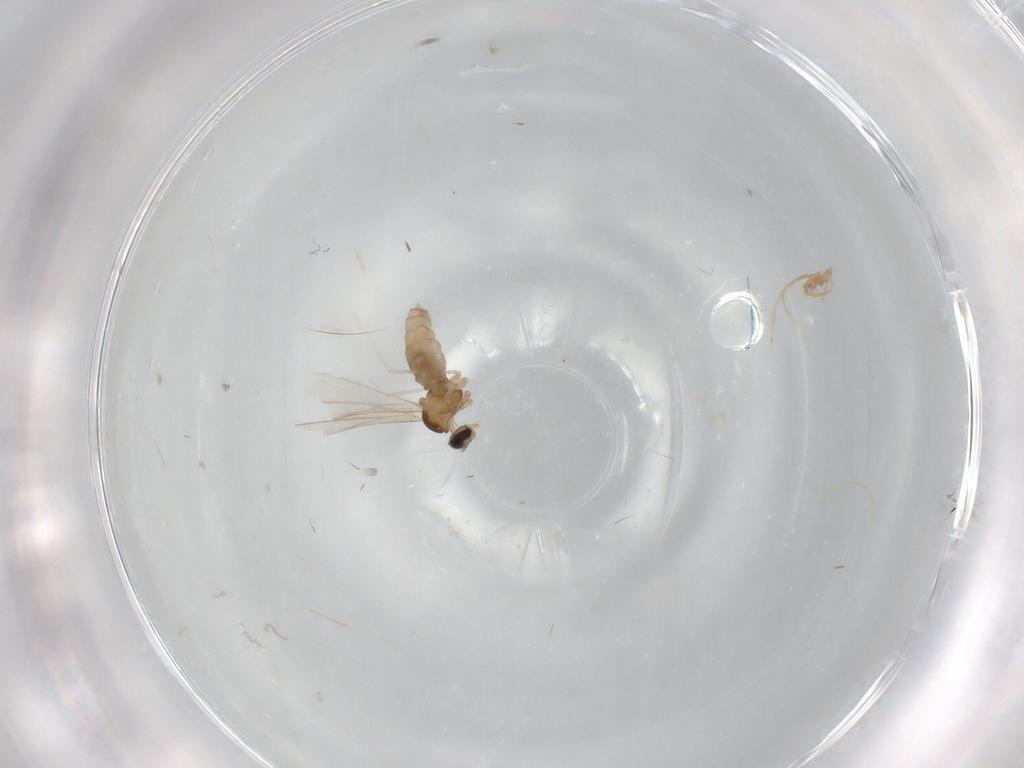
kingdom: Animalia
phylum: Arthropoda
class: Insecta
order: Diptera
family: Cecidomyiidae
